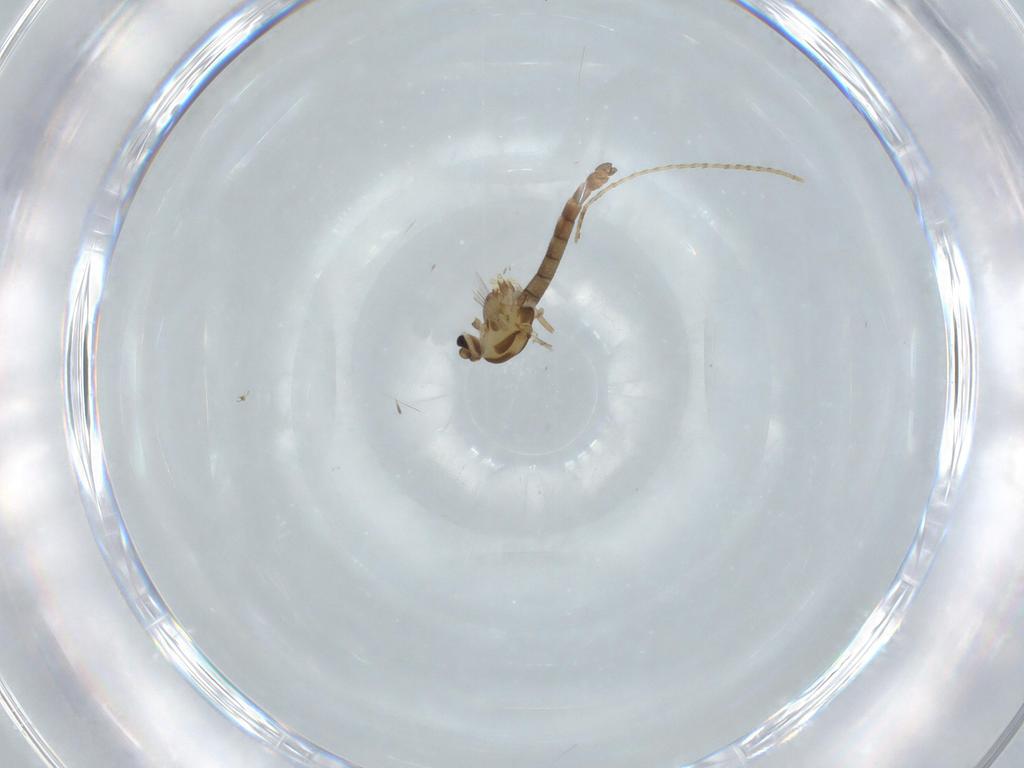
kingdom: Animalia
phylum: Arthropoda
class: Insecta
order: Diptera
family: Chironomidae
